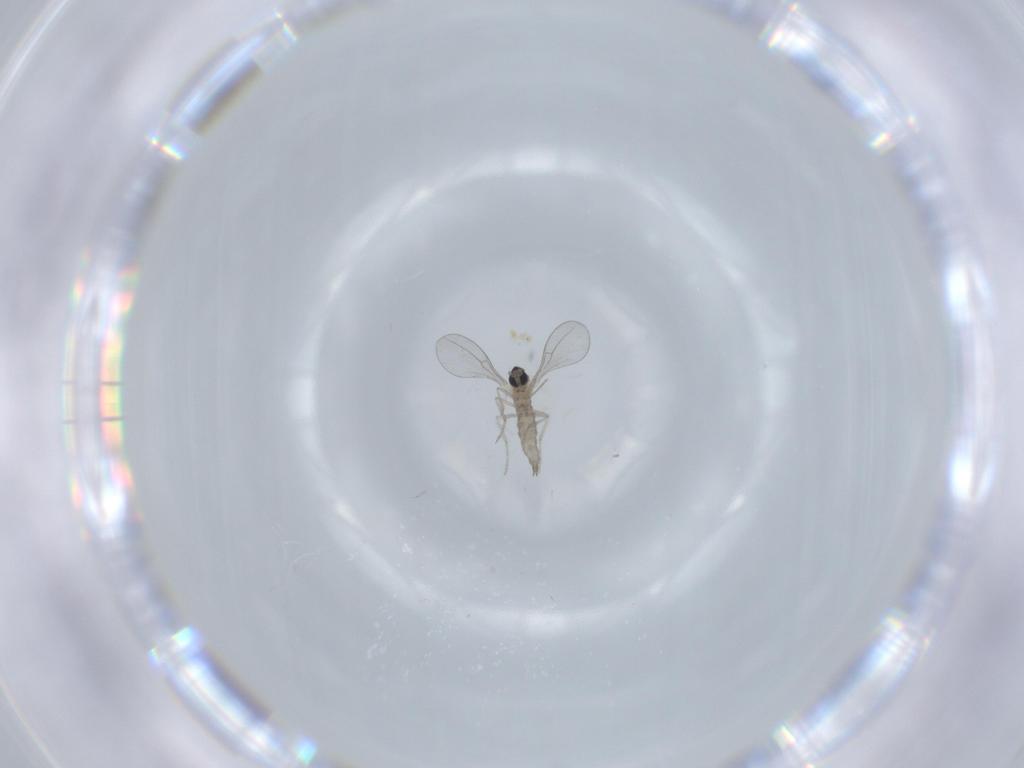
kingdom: Animalia
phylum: Arthropoda
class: Insecta
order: Diptera
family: Cecidomyiidae
